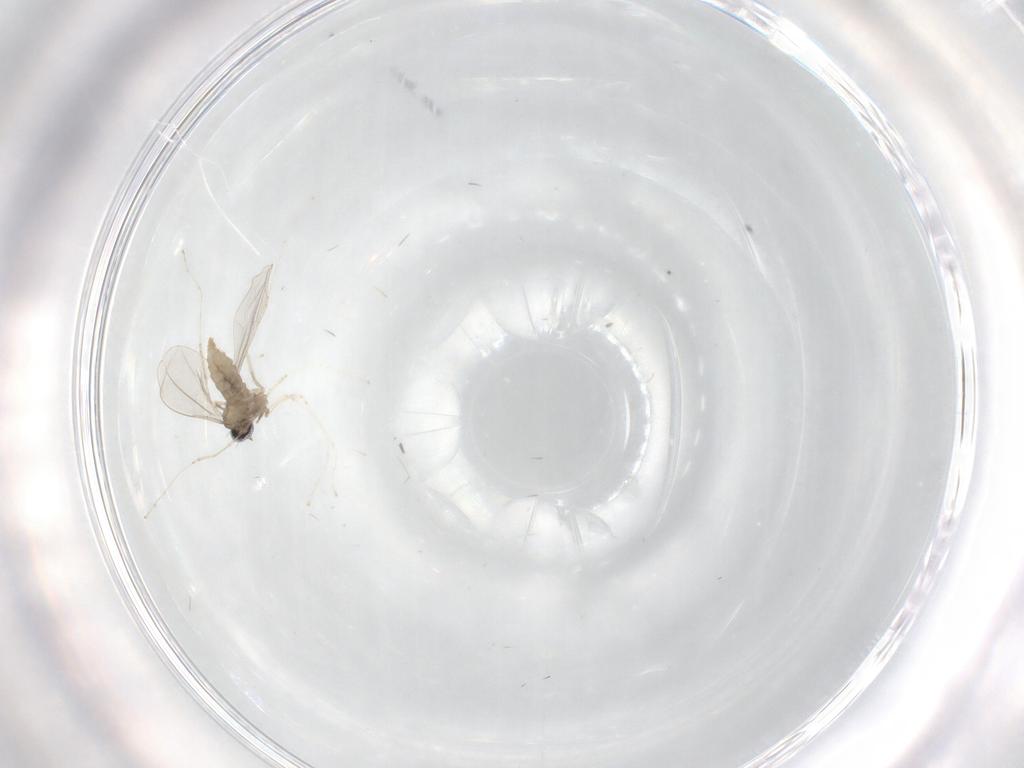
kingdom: Animalia
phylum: Arthropoda
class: Insecta
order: Diptera
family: Cecidomyiidae
